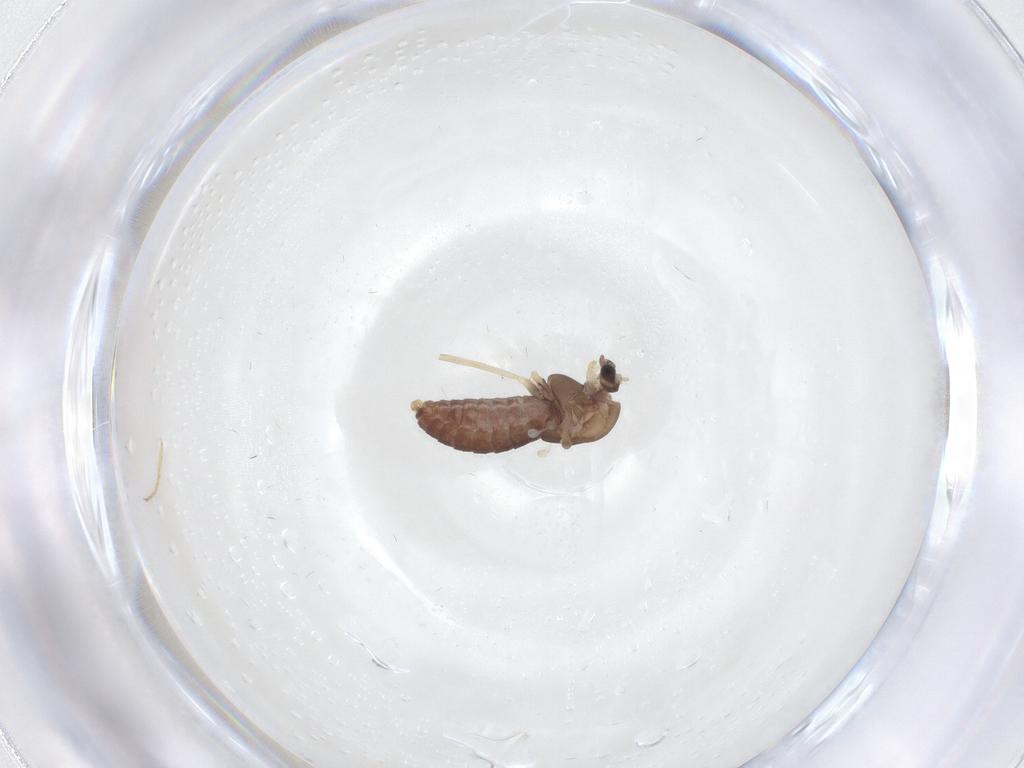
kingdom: Animalia
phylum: Arthropoda
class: Insecta
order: Diptera
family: Chironomidae
